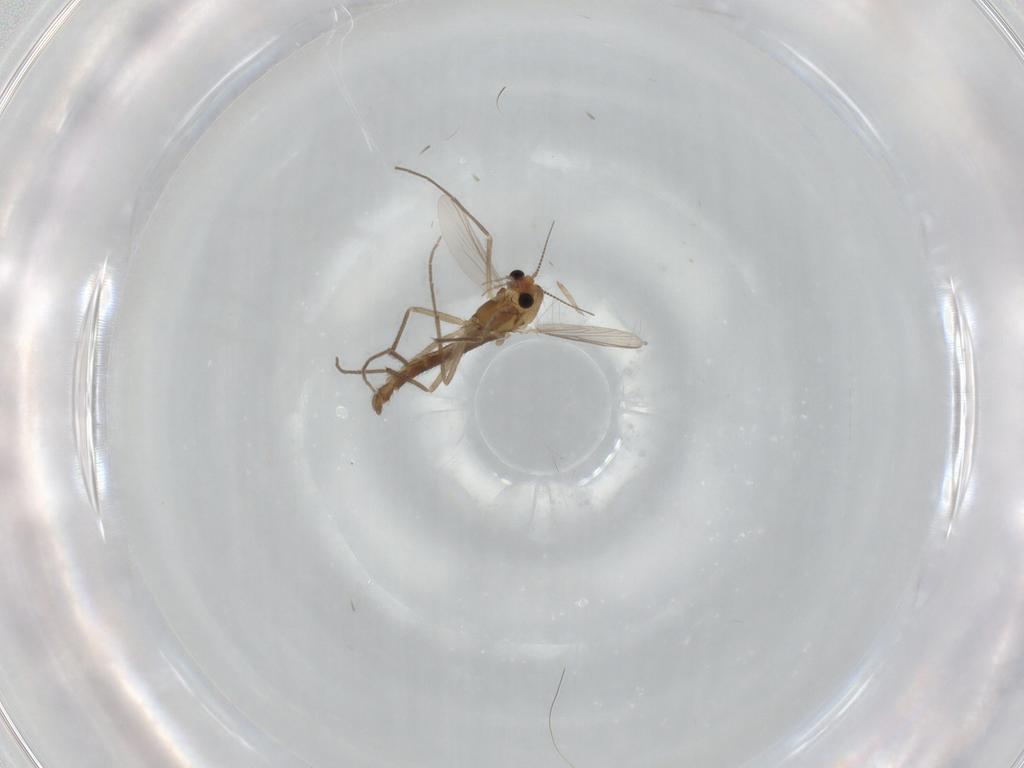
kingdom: Animalia
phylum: Arthropoda
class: Insecta
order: Diptera
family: Chironomidae
